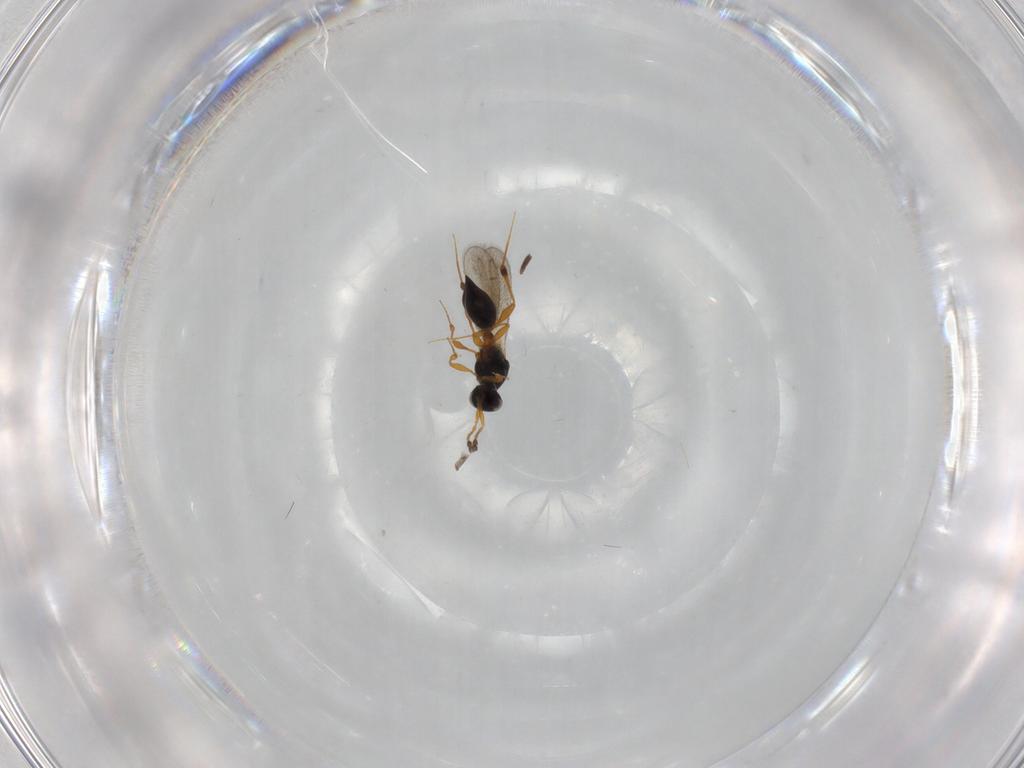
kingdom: Animalia
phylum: Arthropoda
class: Insecta
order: Hymenoptera
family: Platygastridae
